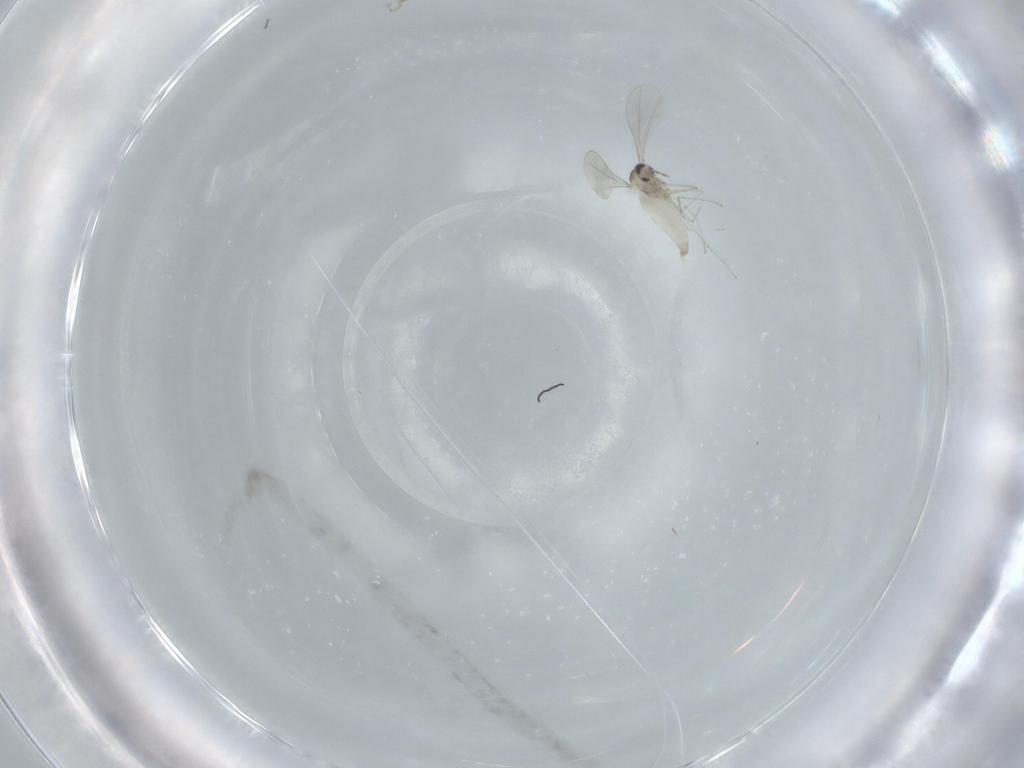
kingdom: Animalia
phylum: Arthropoda
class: Insecta
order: Diptera
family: Cecidomyiidae
